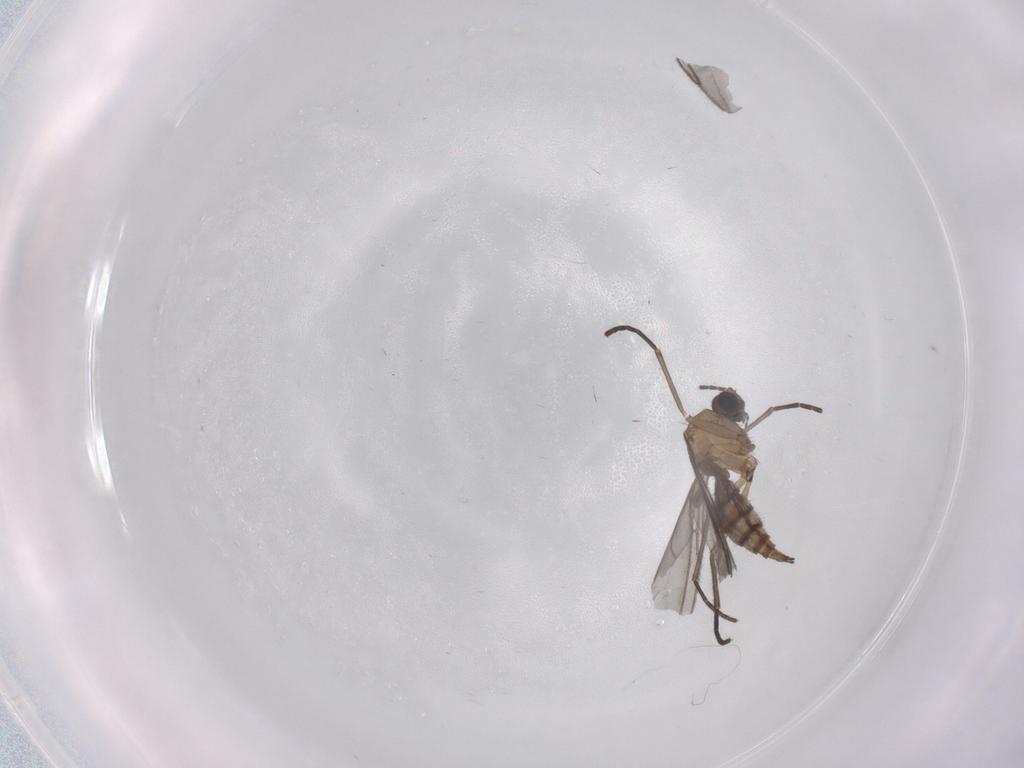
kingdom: Animalia
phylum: Arthropoda
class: Insecta
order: Diptera
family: Sciaridae
